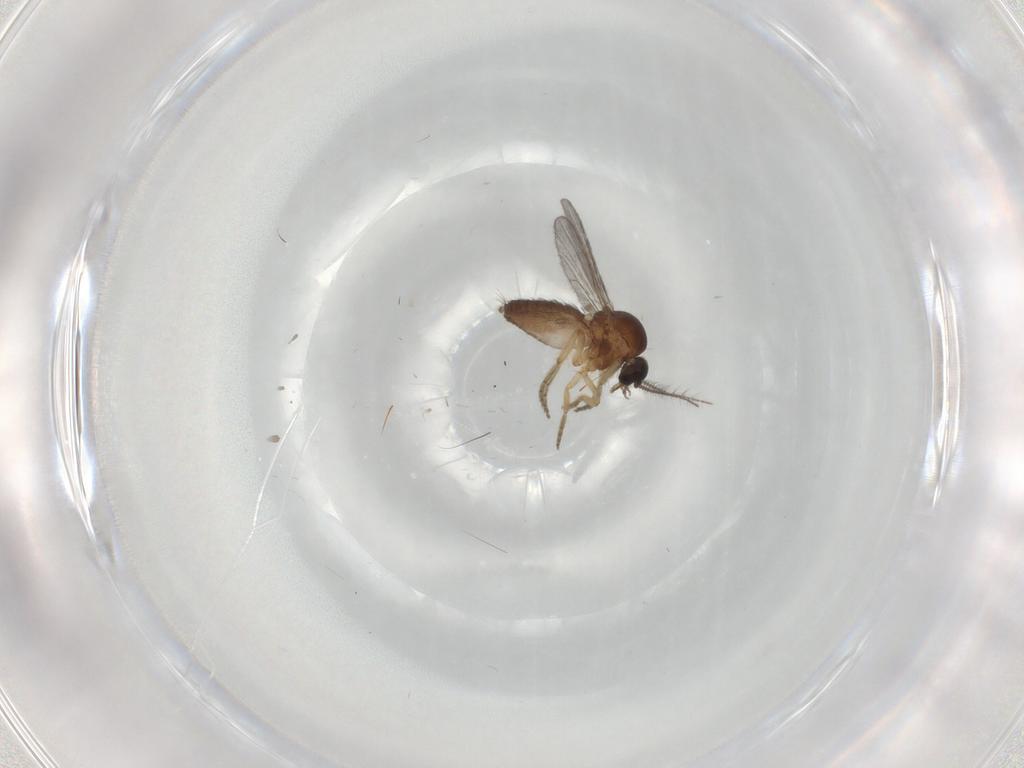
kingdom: Animalia
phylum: Arthropoda
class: Insecta
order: Diptera
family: Ceratopogonidae
